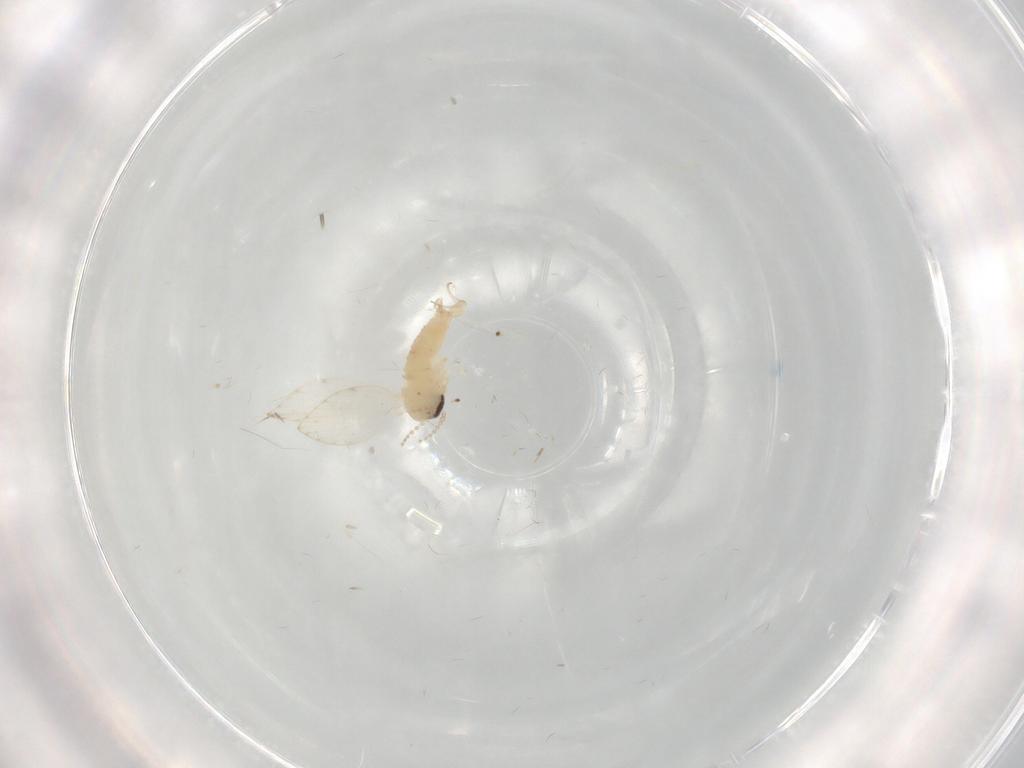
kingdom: Animalia
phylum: Arthropoda
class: Insecta
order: Diptera
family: Psychodidae
